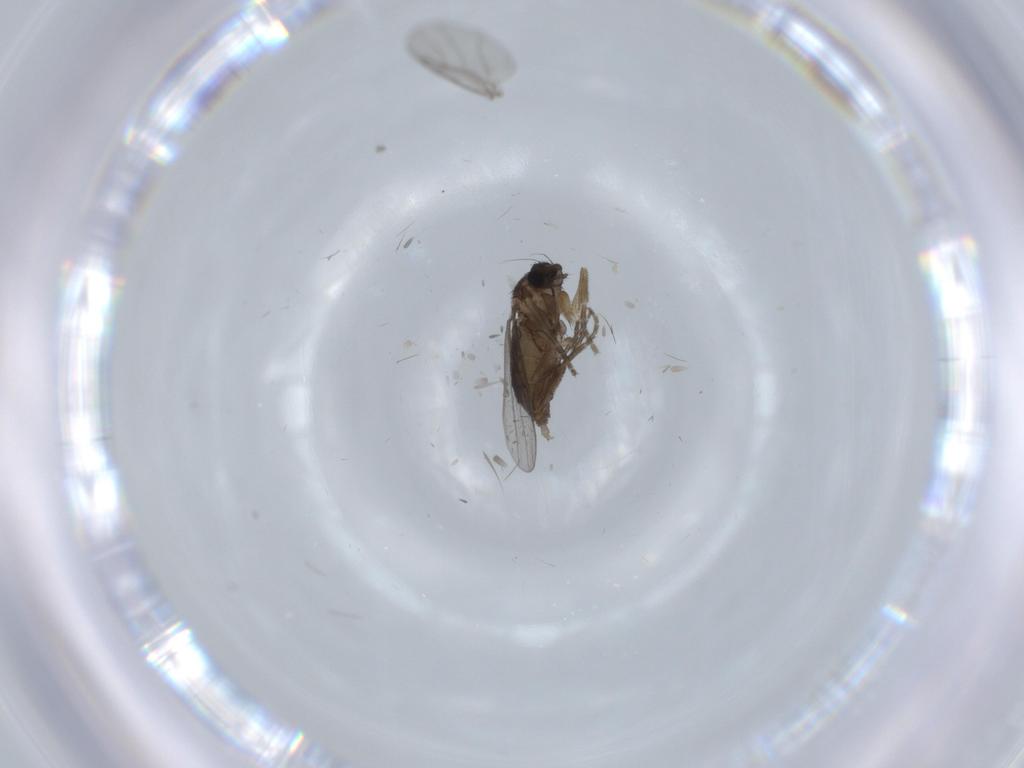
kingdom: Animalia
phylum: Arthropoda
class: Insecta
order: Diptera
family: Phoridae
